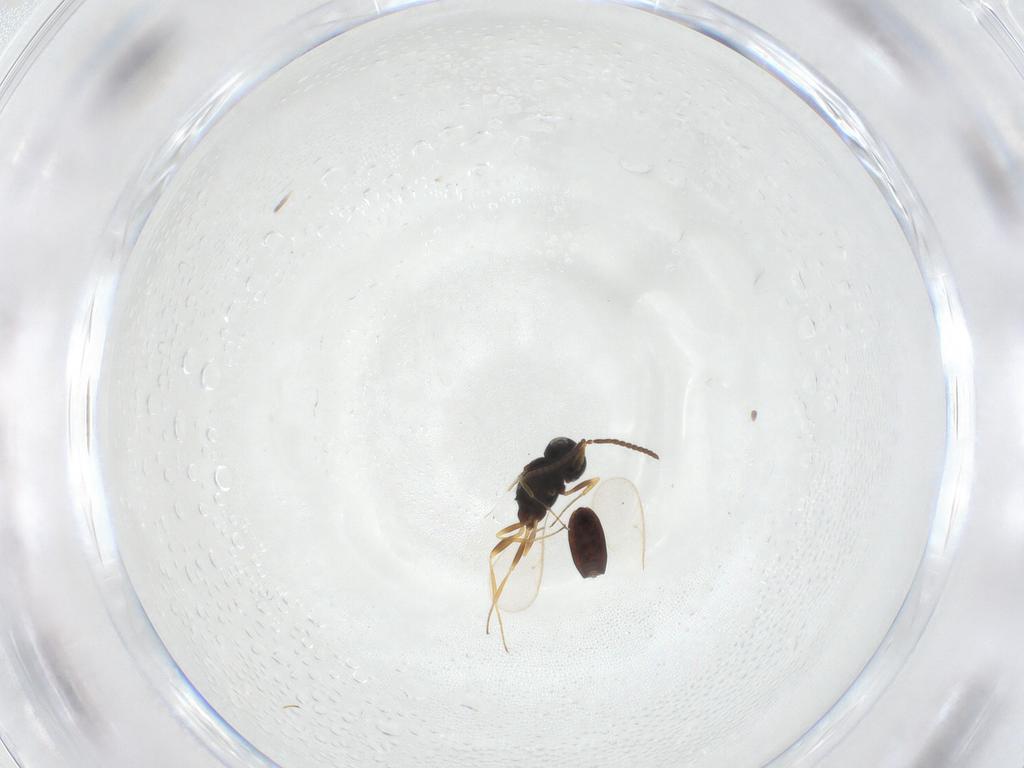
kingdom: Animalia
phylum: Arthropoda
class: Insecta
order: Hymenoptera
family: Scelionidae
